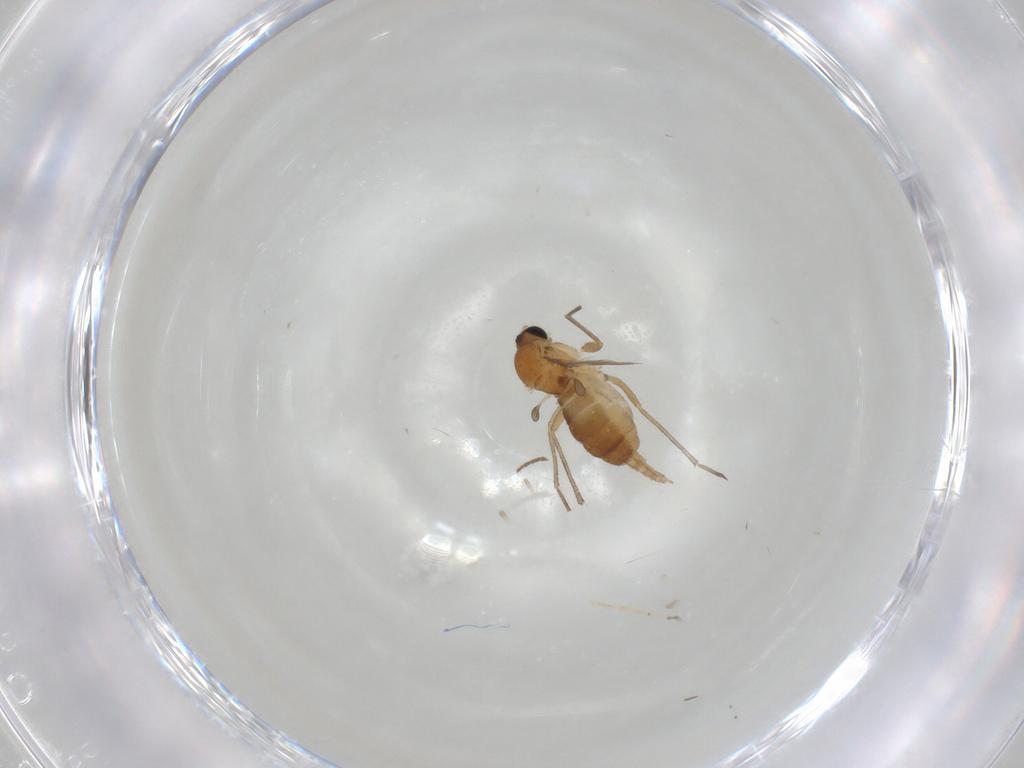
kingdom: Animalia
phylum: Arthropoda
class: Insecta
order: Diptera
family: Sciaridae
